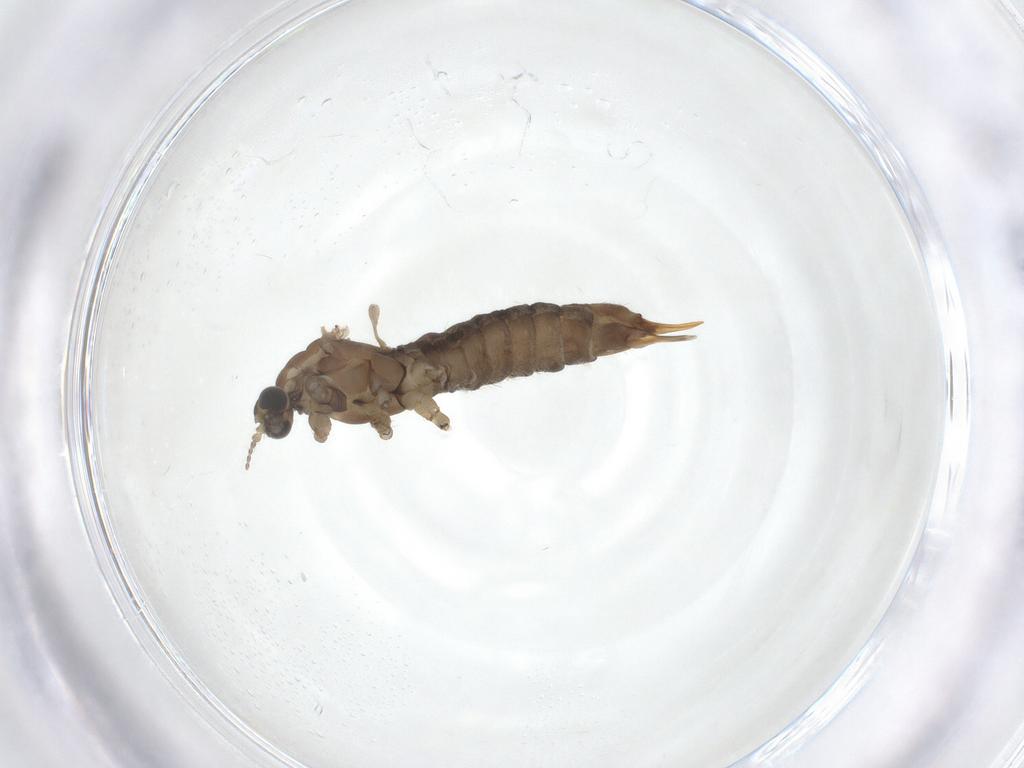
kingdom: Animalia
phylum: Arthropoda
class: Insecta
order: Diptera
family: Limoniidae
